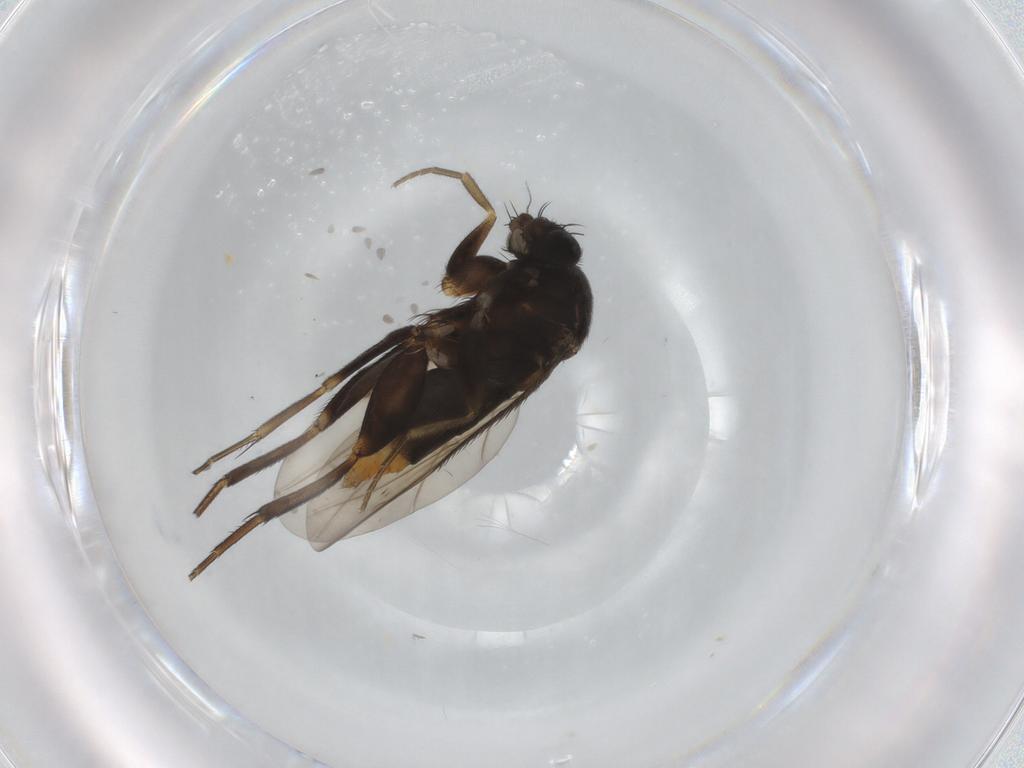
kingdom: Animalia
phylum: Arthropoda
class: Insecta
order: Diptera
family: Phoridae
